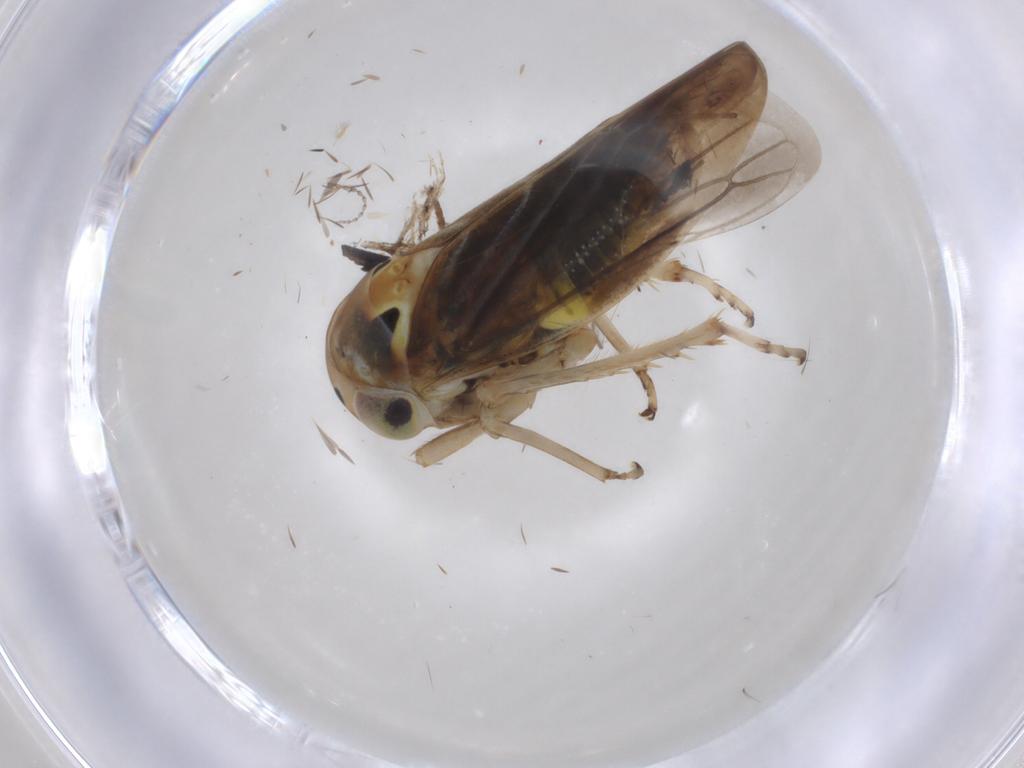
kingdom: Animalia
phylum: Arthropoda
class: Insecta
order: Hemiptera
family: Cicadellidae
